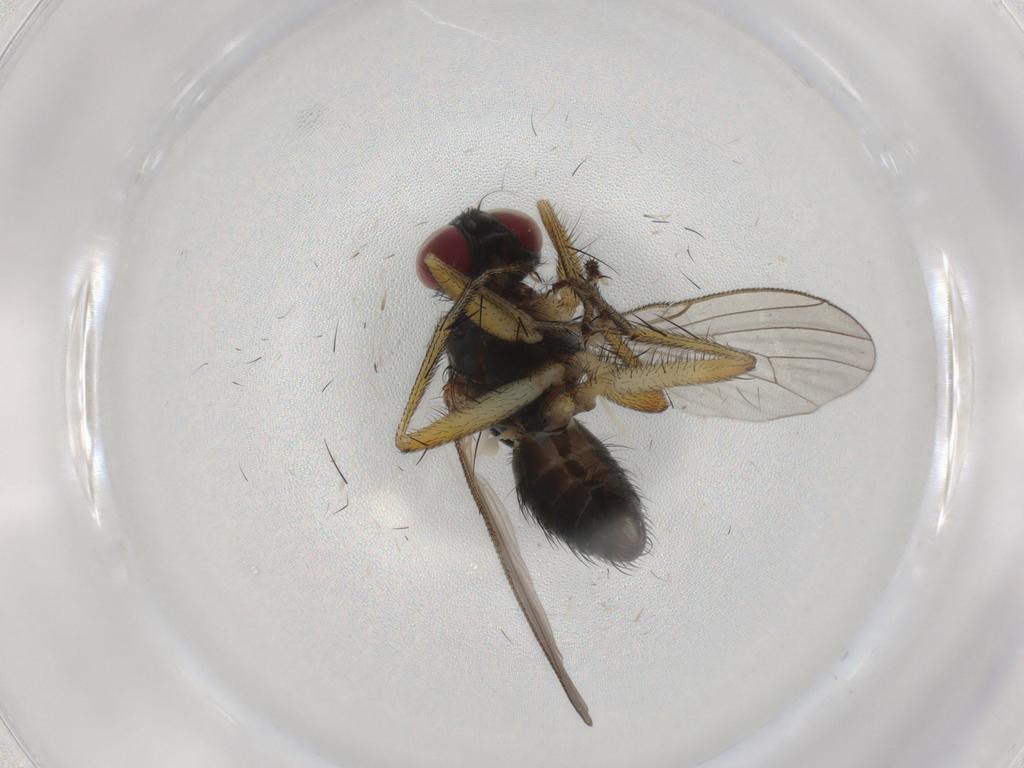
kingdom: Animalia
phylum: Arthropoda
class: Insecta
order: Diptera
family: Muscidae
